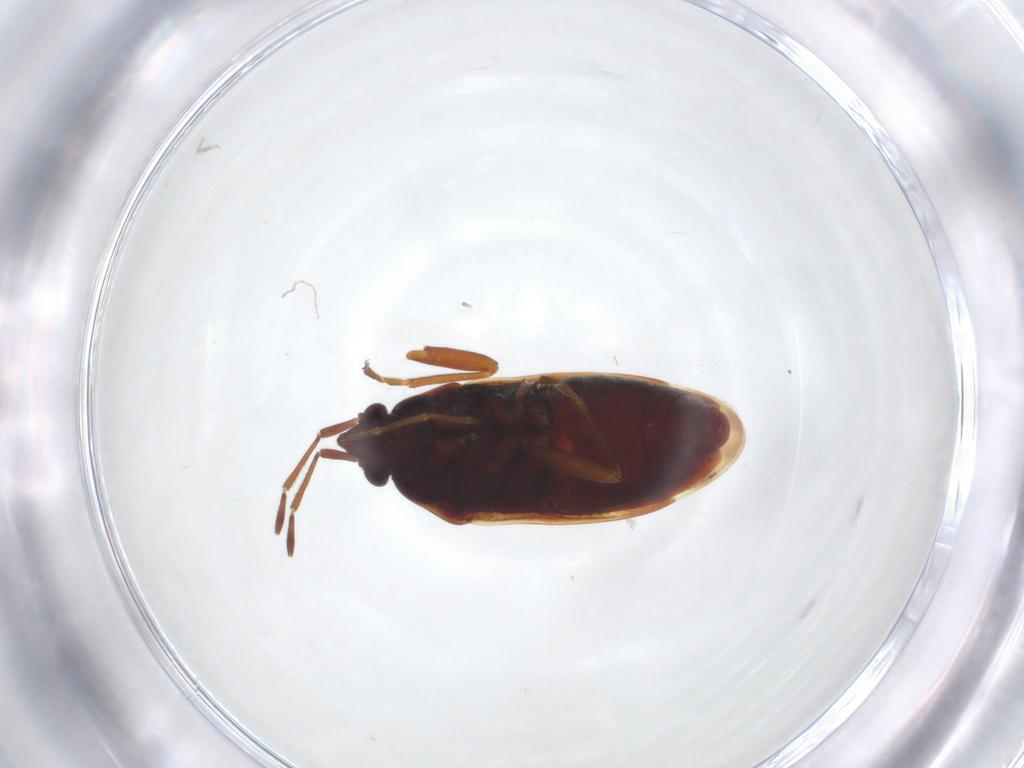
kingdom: Animalia
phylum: Arthropoda
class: Insecta
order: Hemiptera
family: Rhyparochromidae
